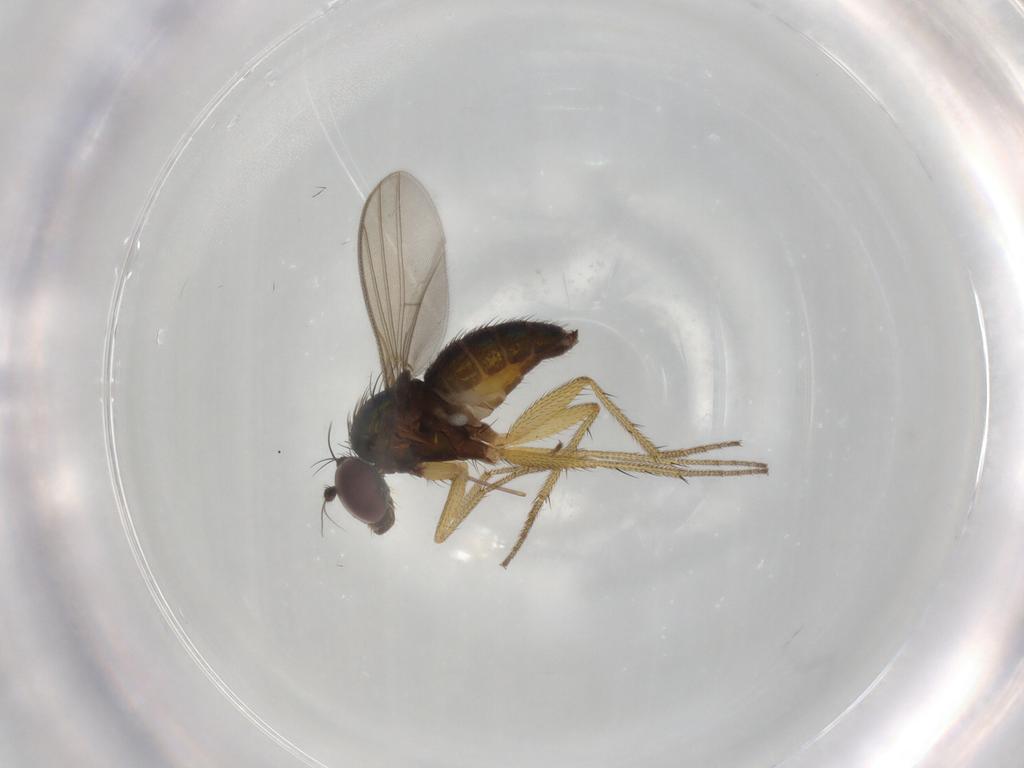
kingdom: Animalia
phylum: Arthropoda
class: Insecta
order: Diptera
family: Dolichopodidae
